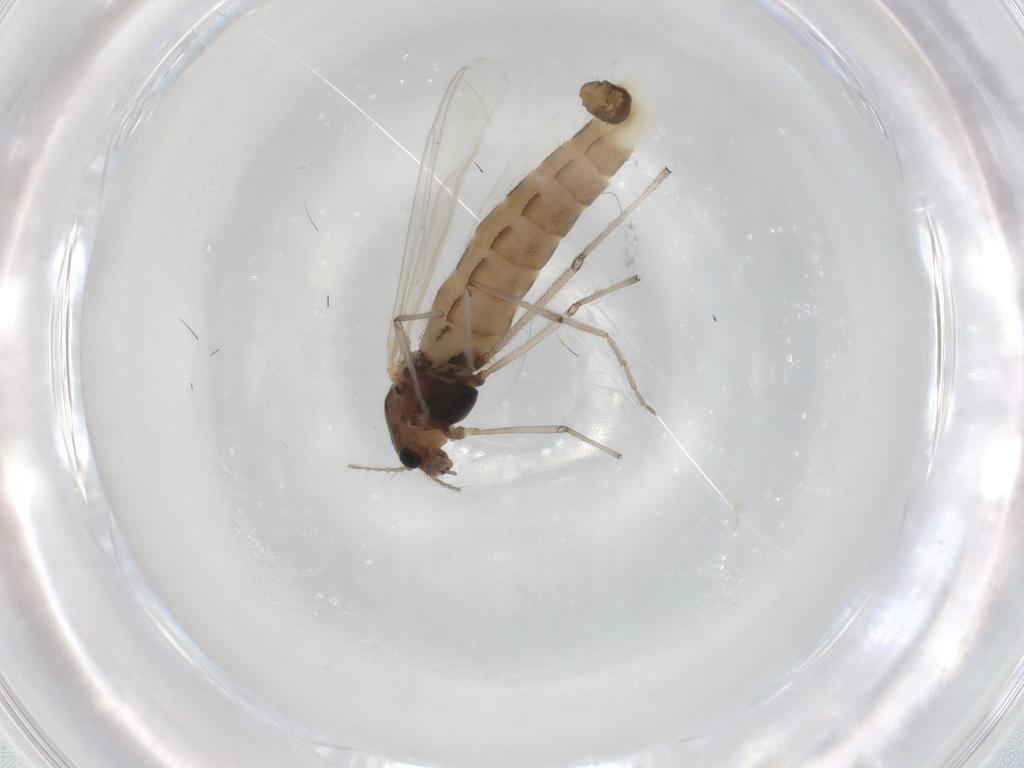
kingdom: Animalia
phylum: Arthropoda
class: Insecta
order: Diptera
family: Chironomidae
